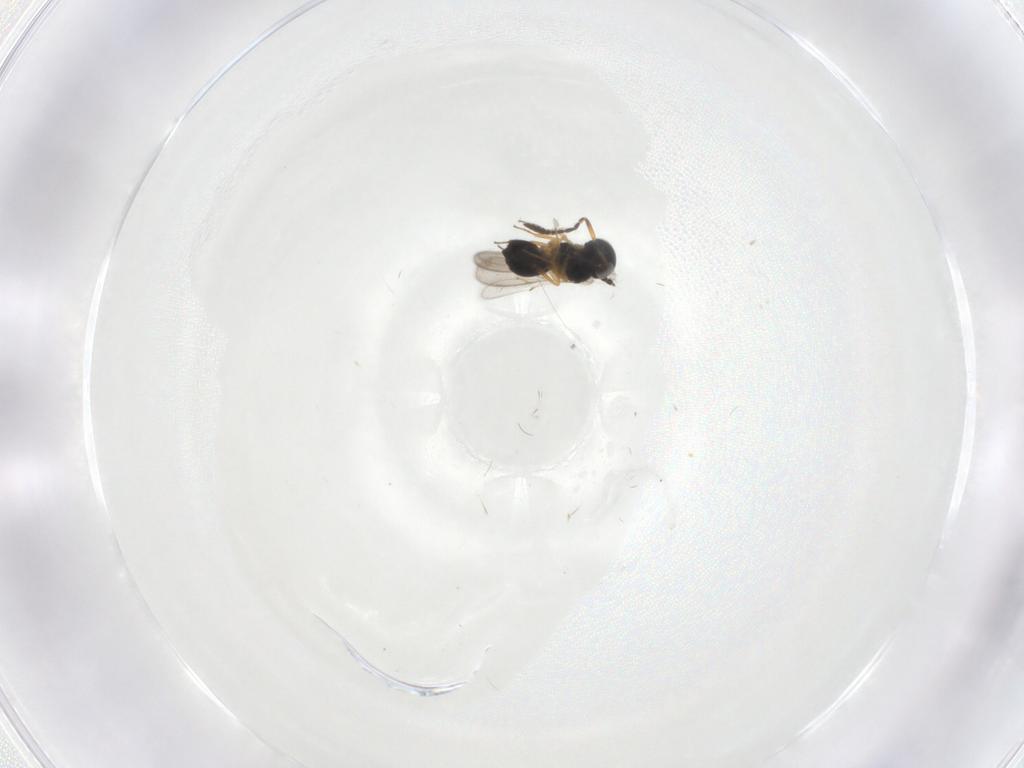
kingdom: Animalia
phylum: Arthropoda
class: Insecta
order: Hymenoptera
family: Scelionidae
